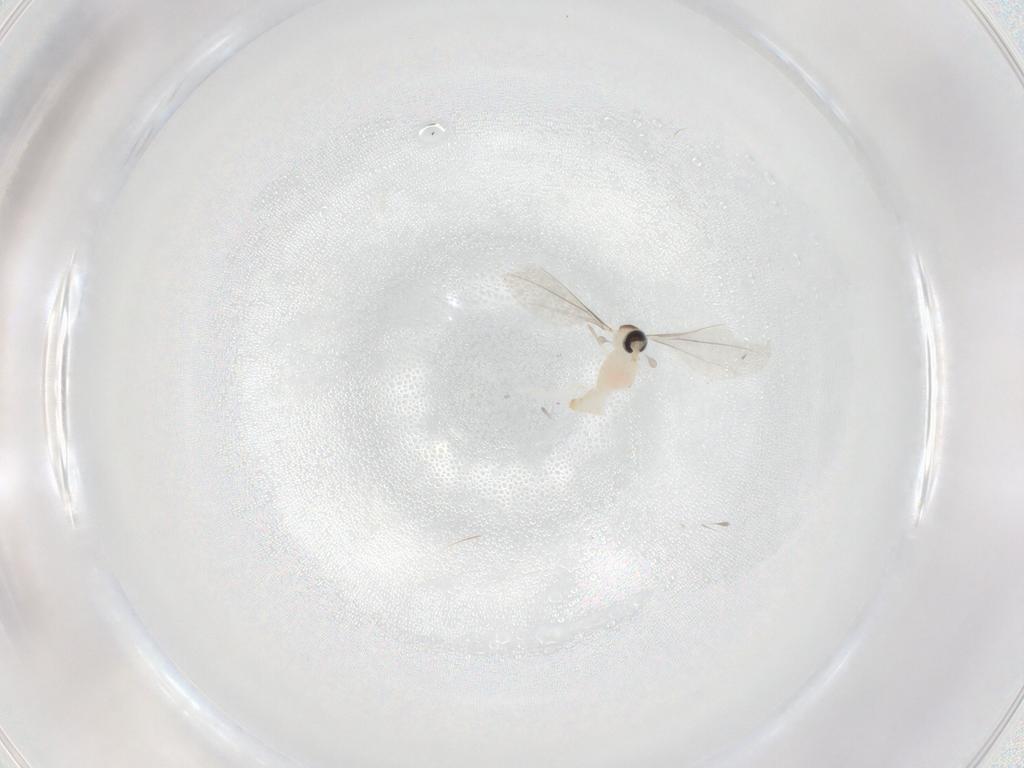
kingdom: Animalia
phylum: Arthropoda
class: Insecta
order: Diptera
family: Cecidomyiidae
